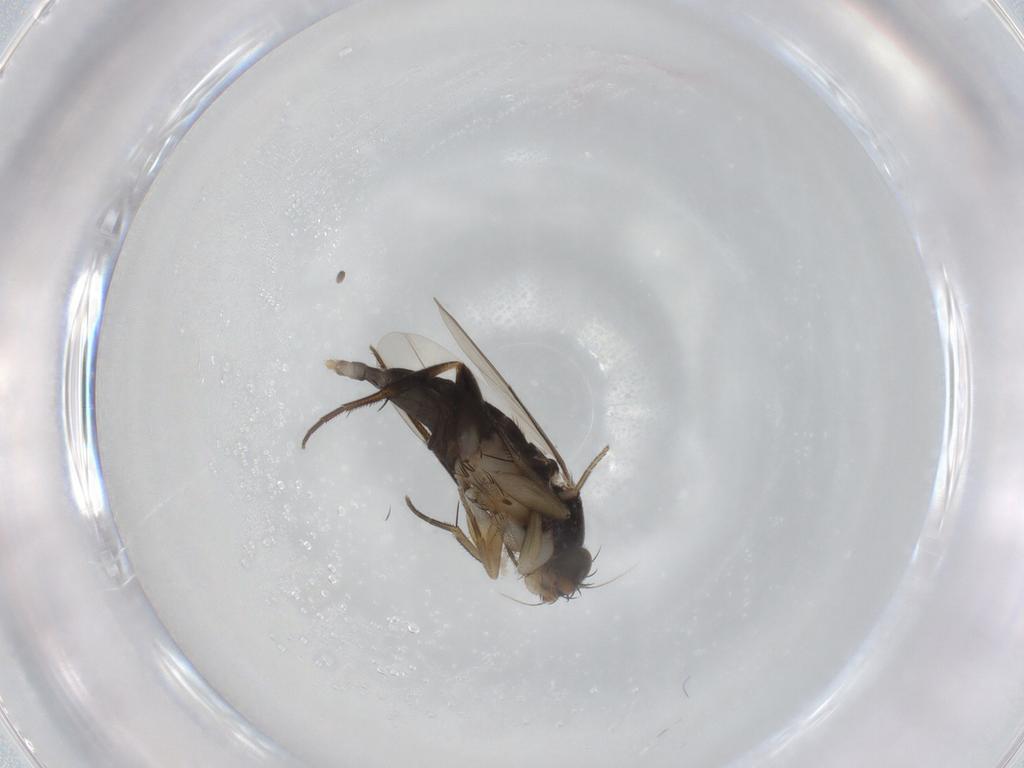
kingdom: Animalia
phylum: Arthropoda
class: Insecta
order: Diptera
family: Phoridae
